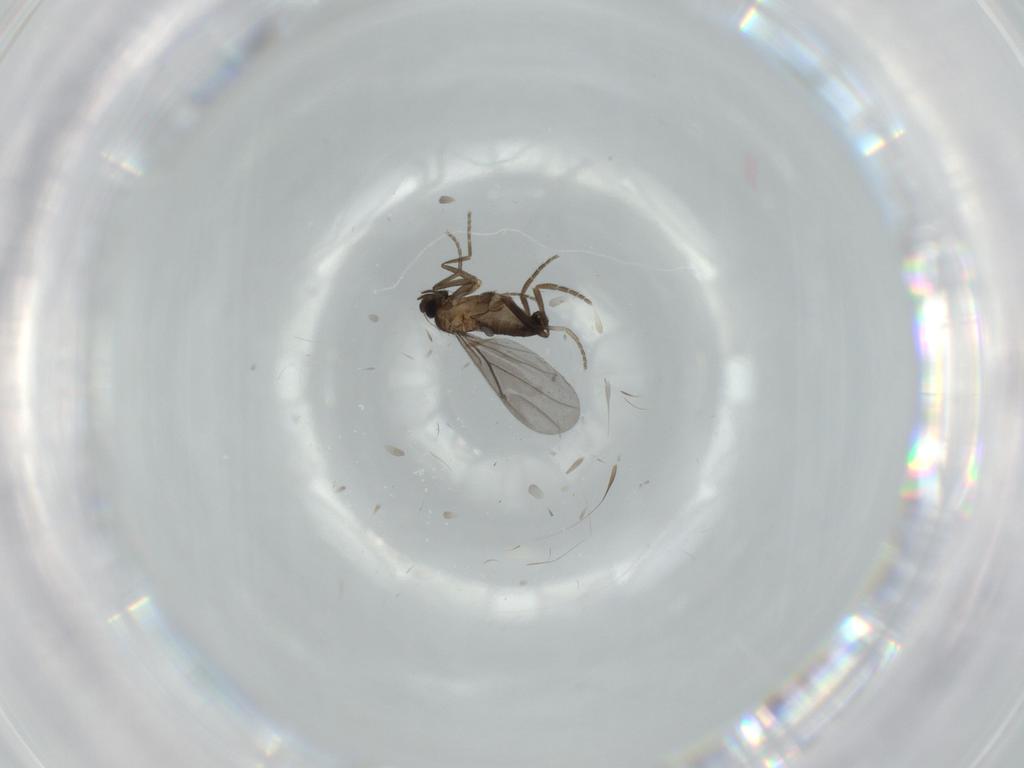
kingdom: Animalia
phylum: Arthropoda
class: Insecta
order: Diptera
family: Phoridae
